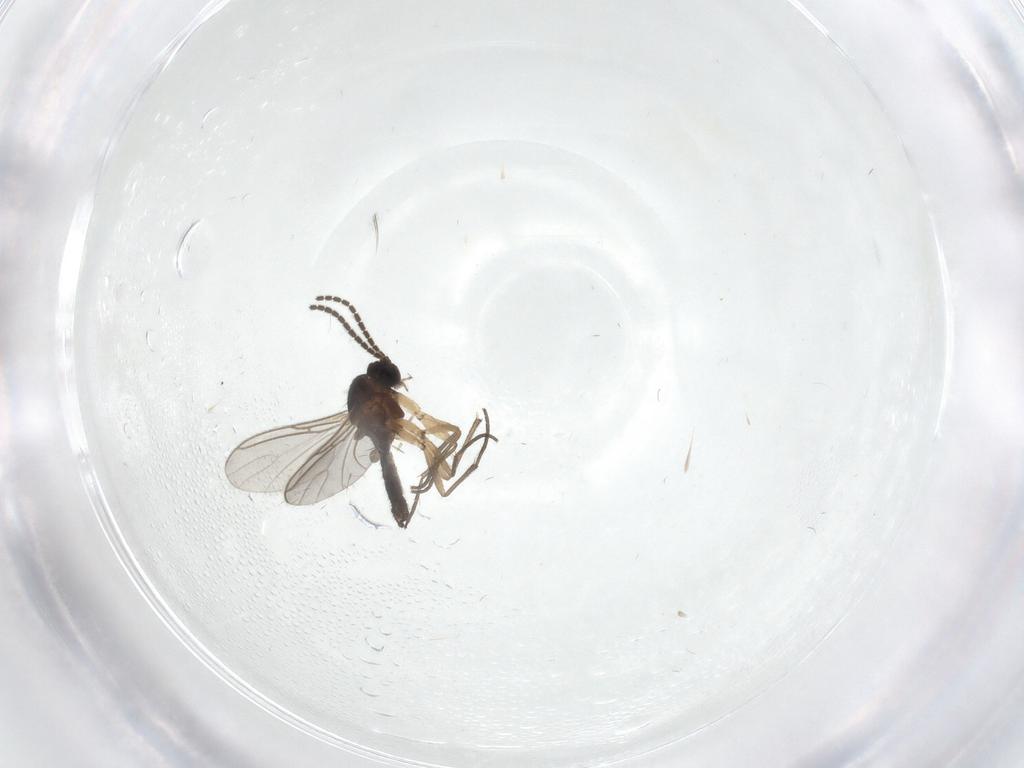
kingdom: Animalia
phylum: Arthropoda
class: Insecta
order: Diptera
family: Sciaridae
